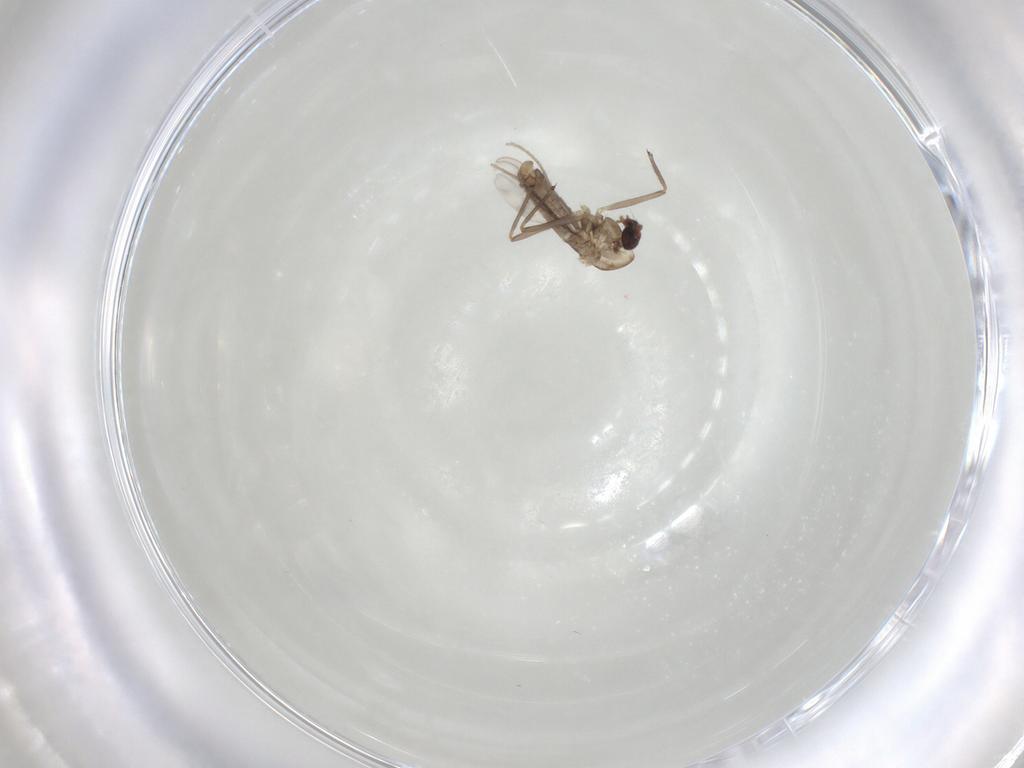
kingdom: Animalia
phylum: Arthropoda
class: Insecta
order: Diptera
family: Chironomidae
